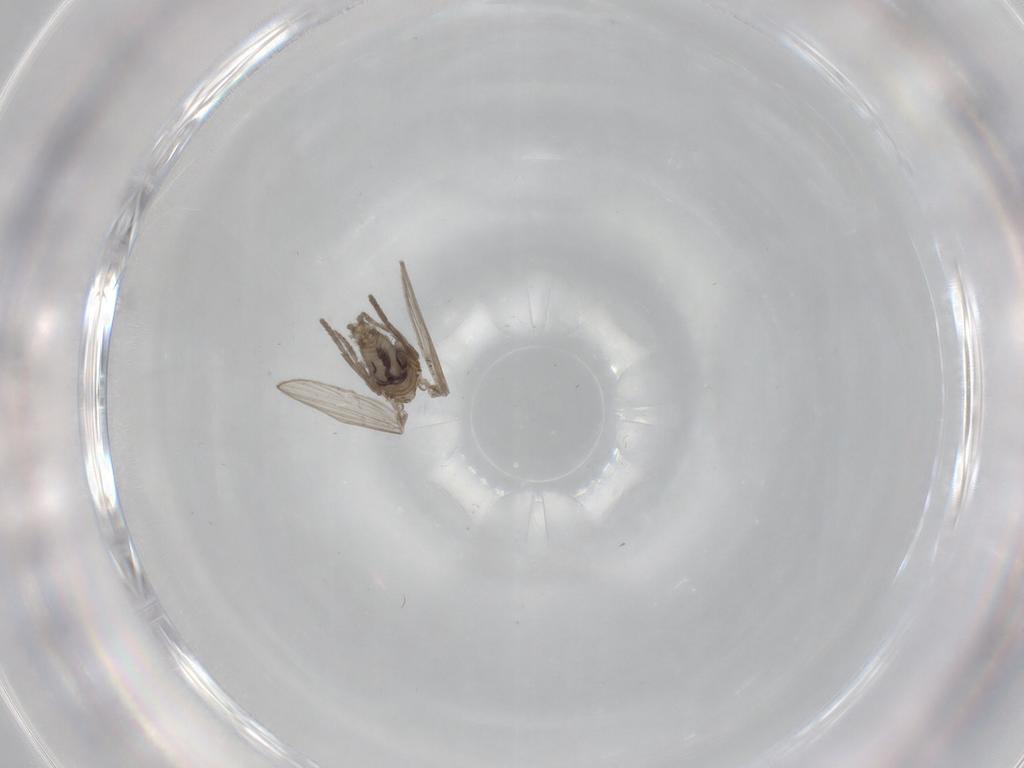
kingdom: Animalia
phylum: Arthropoda
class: Insecta
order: Diptera
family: Psychodidae
